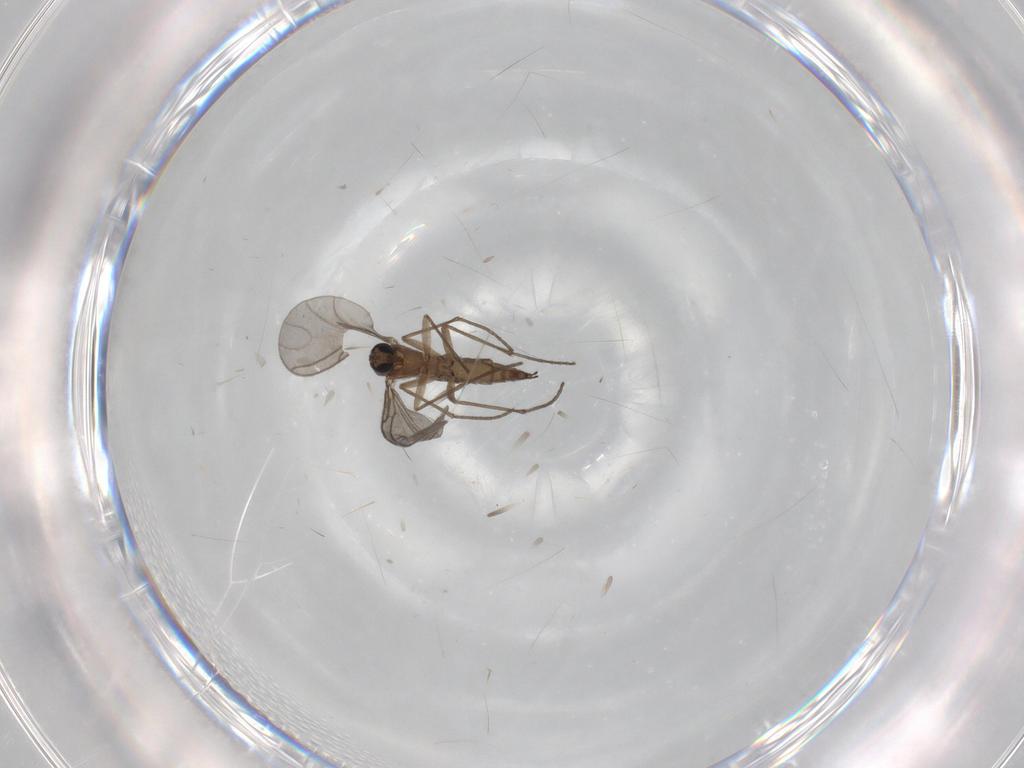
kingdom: Animalia
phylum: Arthropoda
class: Insecta
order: Diptera
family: Sciaridae
